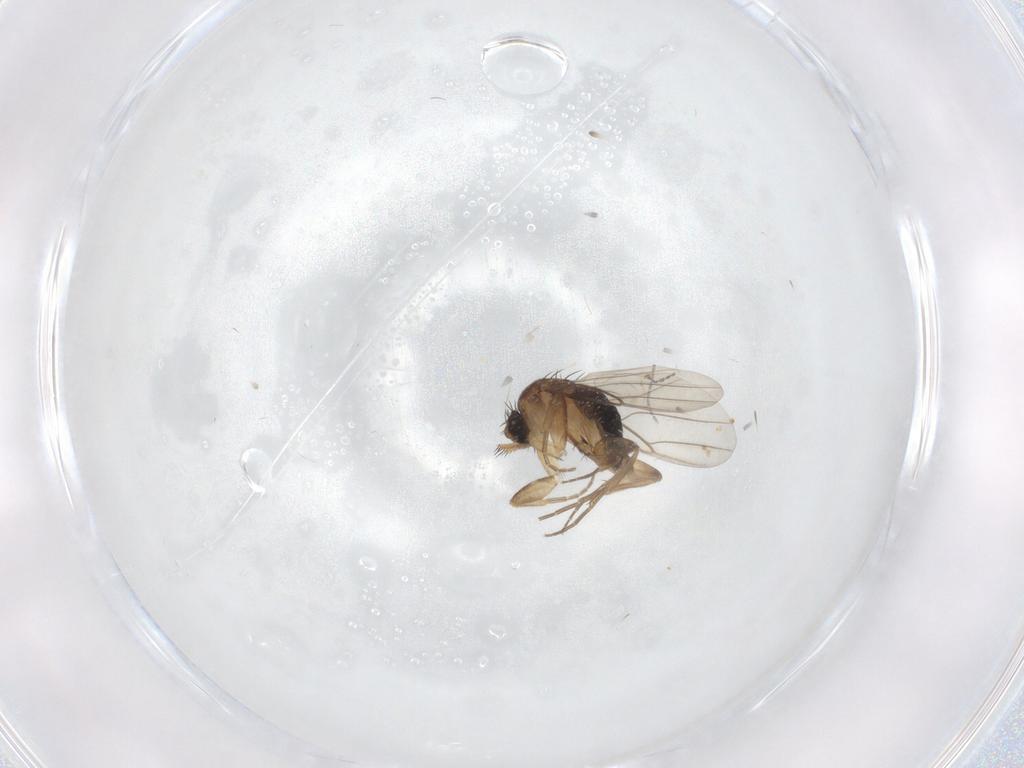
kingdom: Animalia
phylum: Arthropoda
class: Insecta
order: Diptera
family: Phoridae
